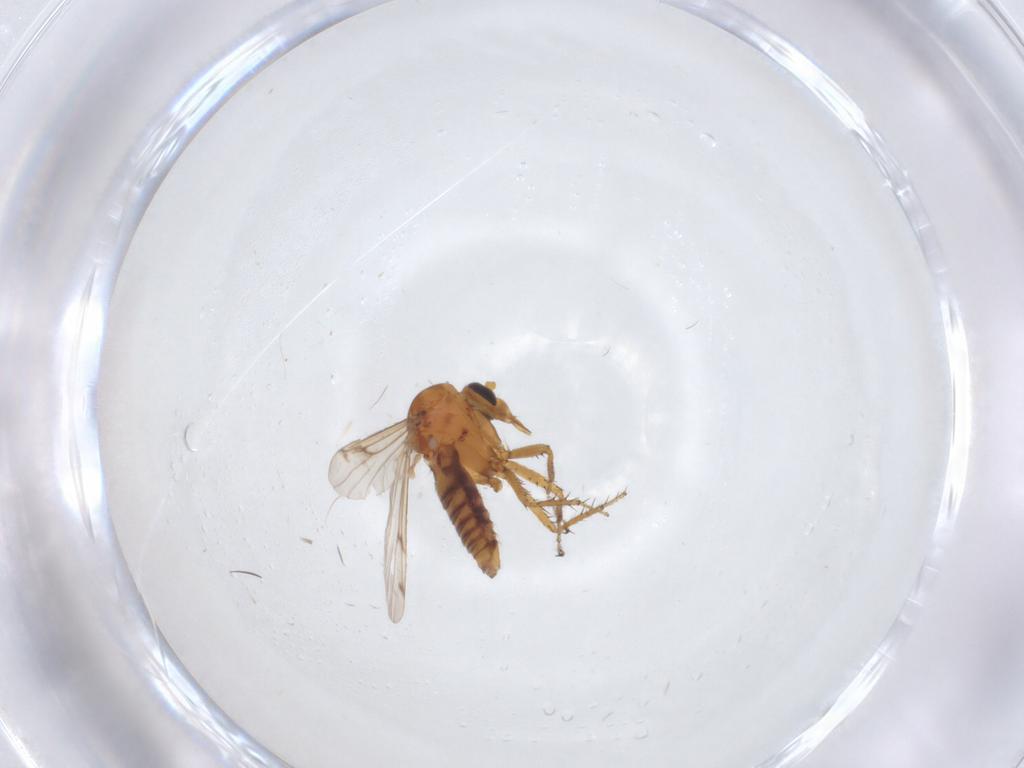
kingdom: Animalia
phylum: Arthropoda
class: Insecta
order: Diptera
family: Ceratopogonidae
